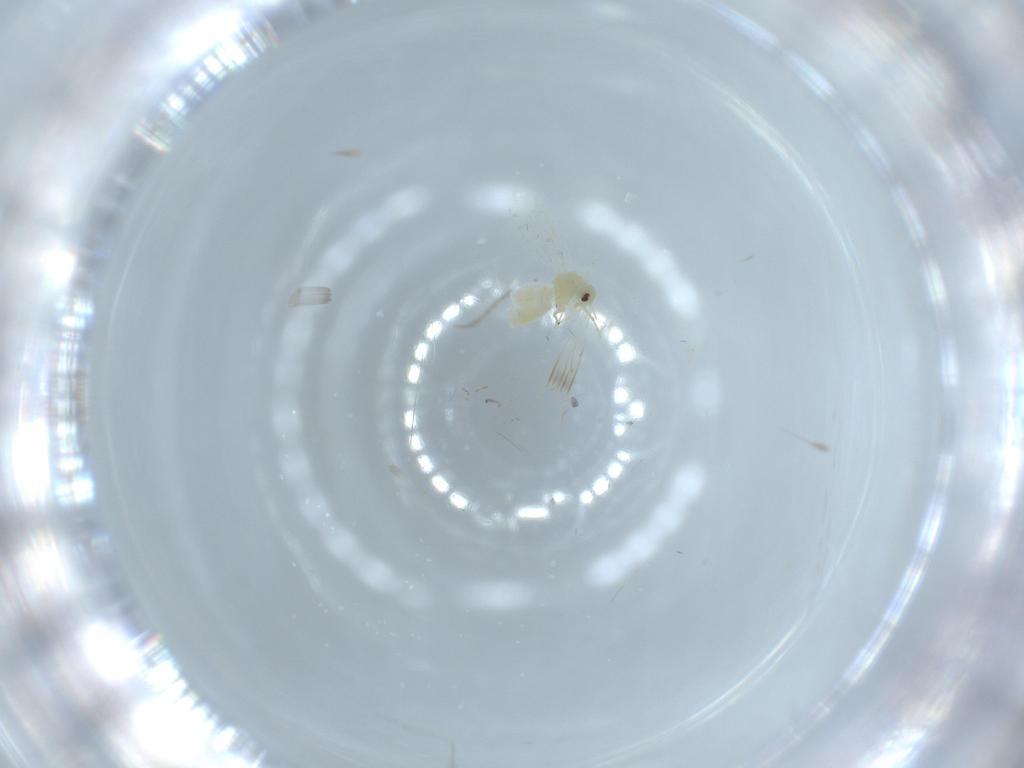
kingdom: Animalia
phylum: Arthropoda
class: Insecta
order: Hemiptera
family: Aleyrodidae
